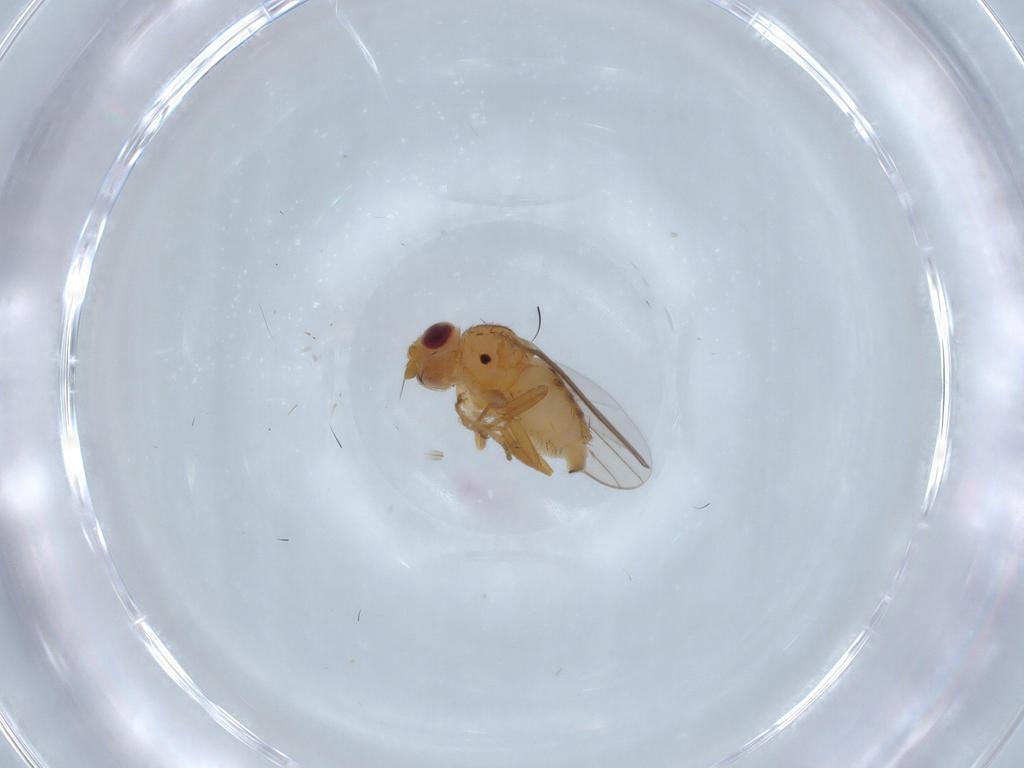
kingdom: Animalia
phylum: Arthropoda
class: Insecta
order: Diptera
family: Chloropidae
